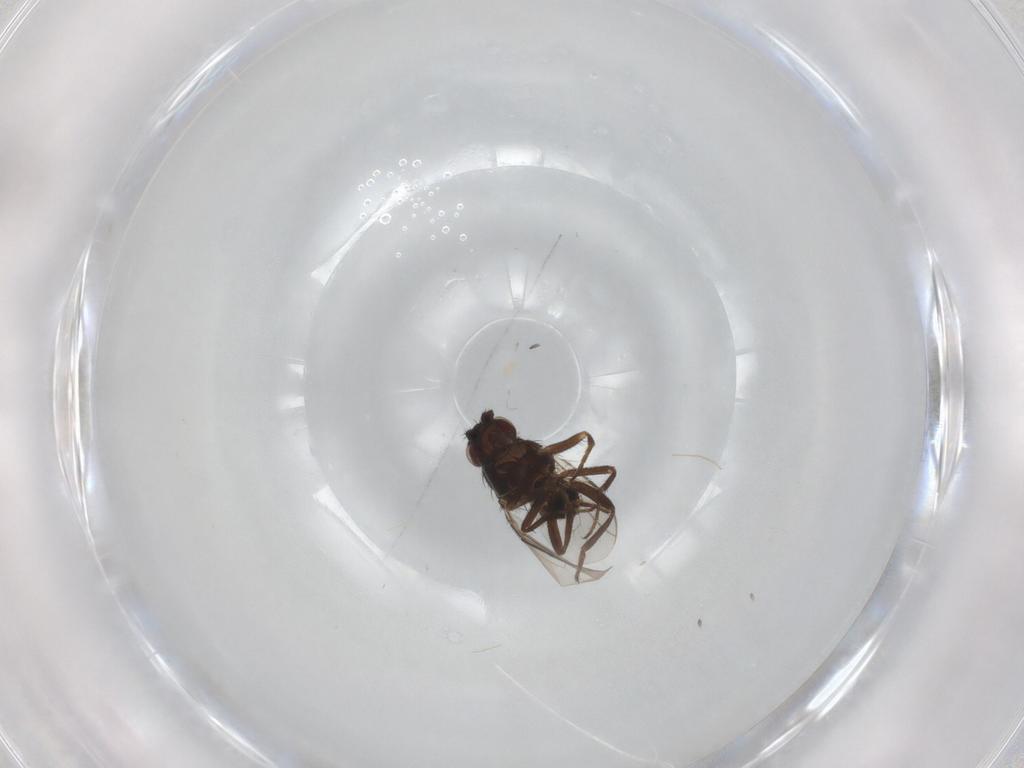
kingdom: Animalia
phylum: Arthropoda
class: Insecta
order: Diptera
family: Sphaeroceridae
